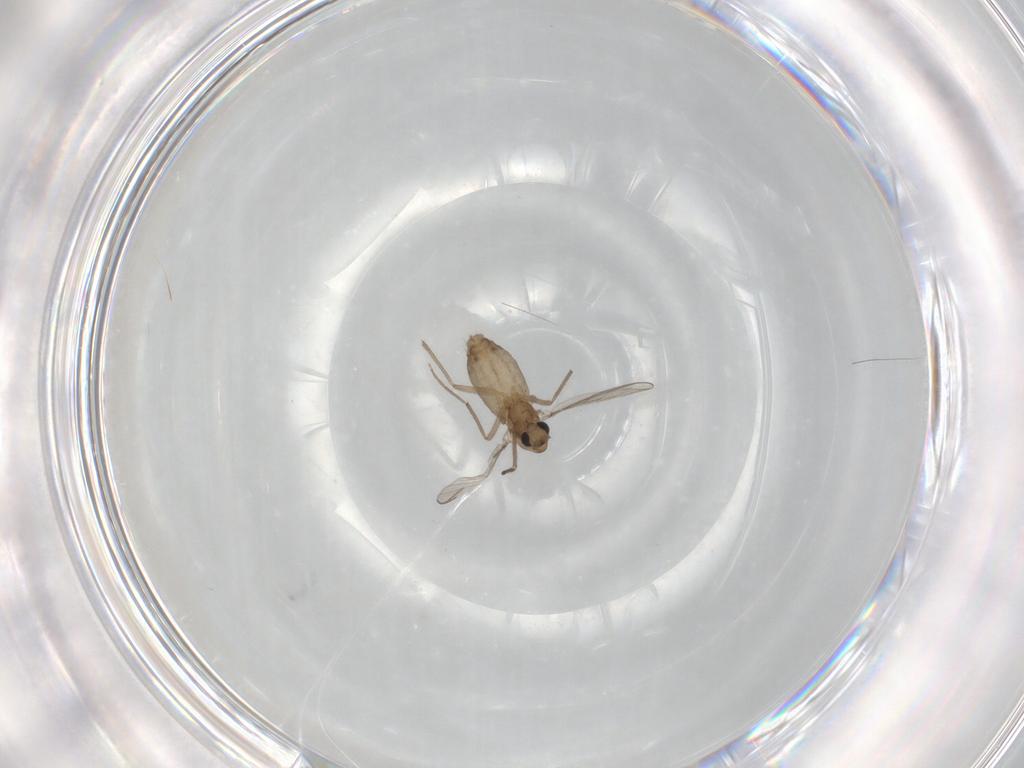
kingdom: Animalia
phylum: Arthropoda
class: Insecta
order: Diptera
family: Chironomidae
